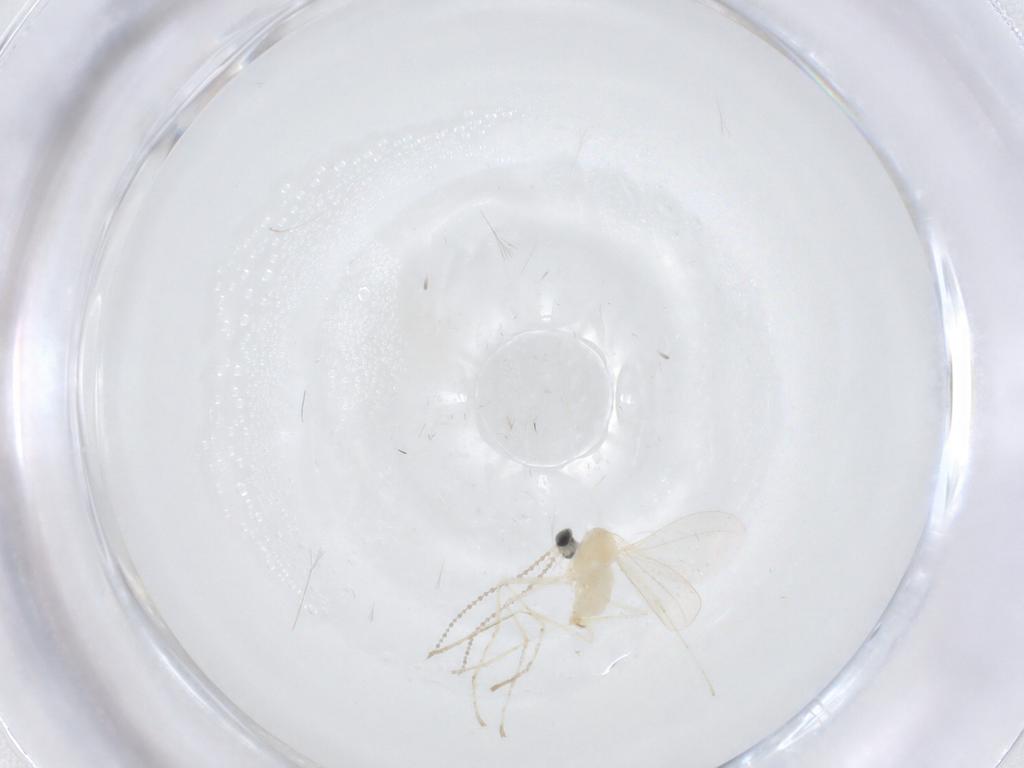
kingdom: Animalia
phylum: Arthropoda
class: Insecta
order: Diptera
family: Cecidomyiidae
